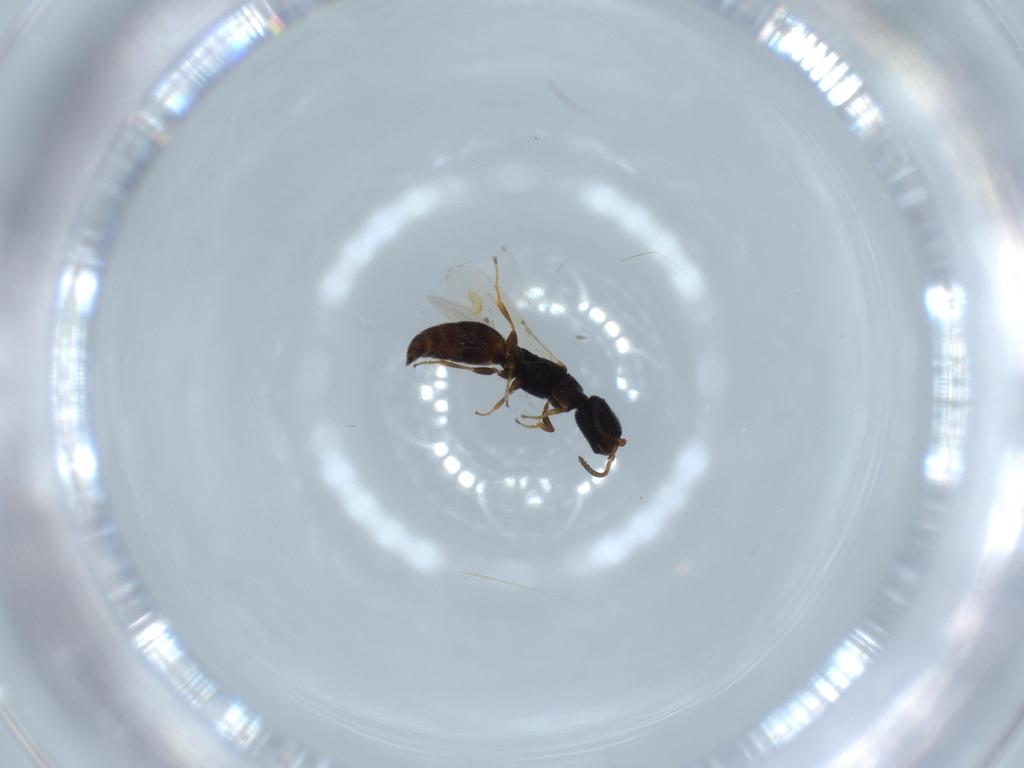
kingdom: Animalia
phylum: Arthropoda
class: Insecta
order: Hymenoptera
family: Bethylidae
